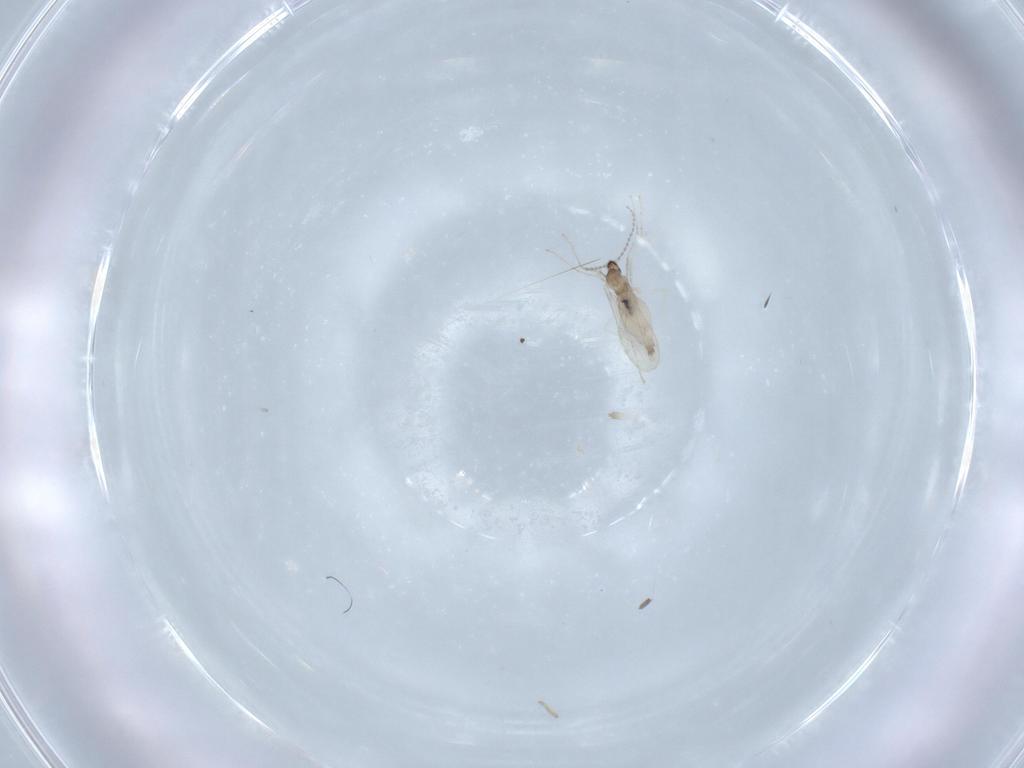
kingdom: Animalia
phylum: Arthropoda
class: Insecta
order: Diptera
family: Cecidomyiidae
